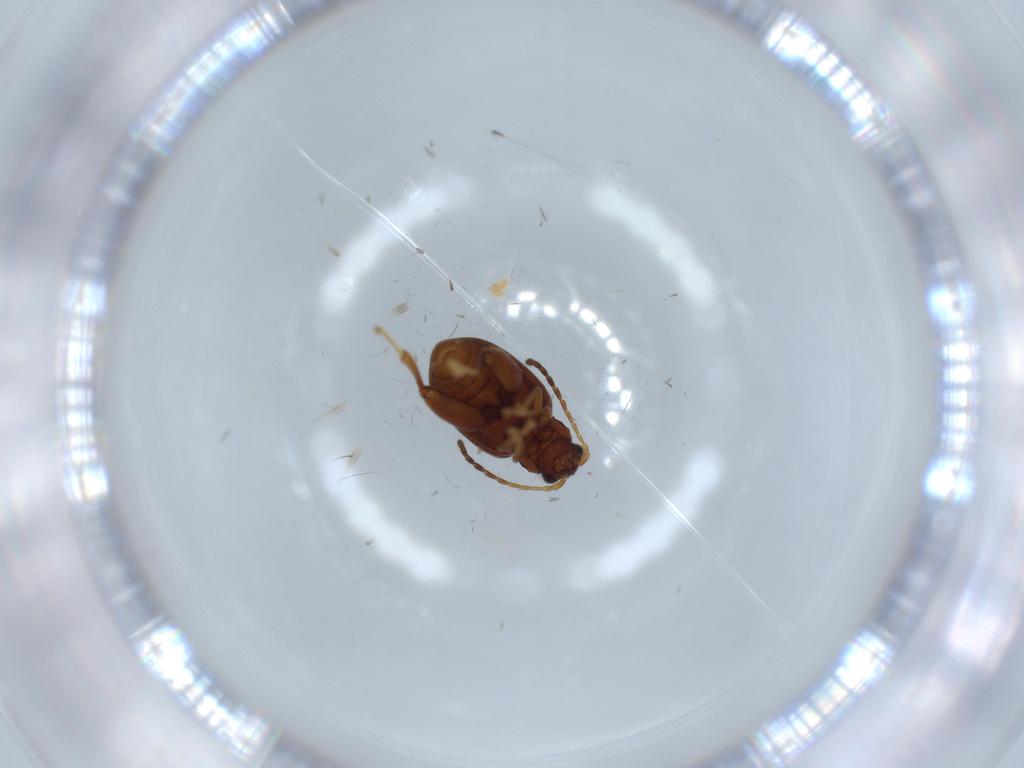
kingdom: Animalia
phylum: Arthropoda
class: Insecta
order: Coleoptera
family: Chrysomelidae
